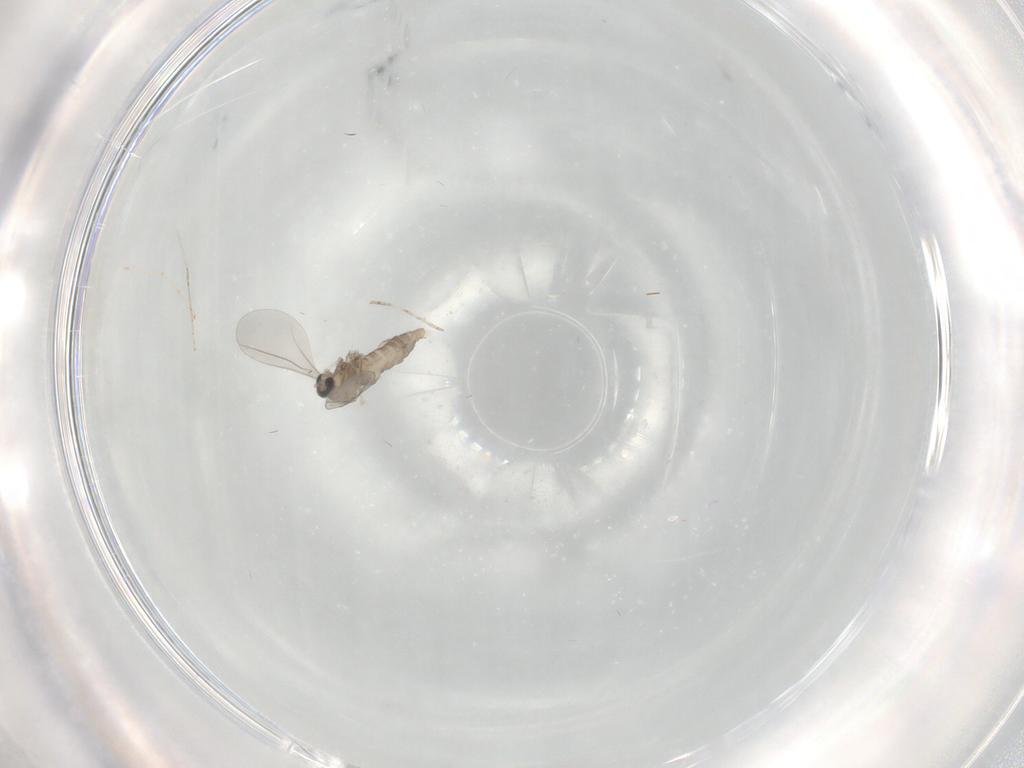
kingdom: Animalia
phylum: Arthropoda
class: Insecta
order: Diptera
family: Cecidomyiidae
